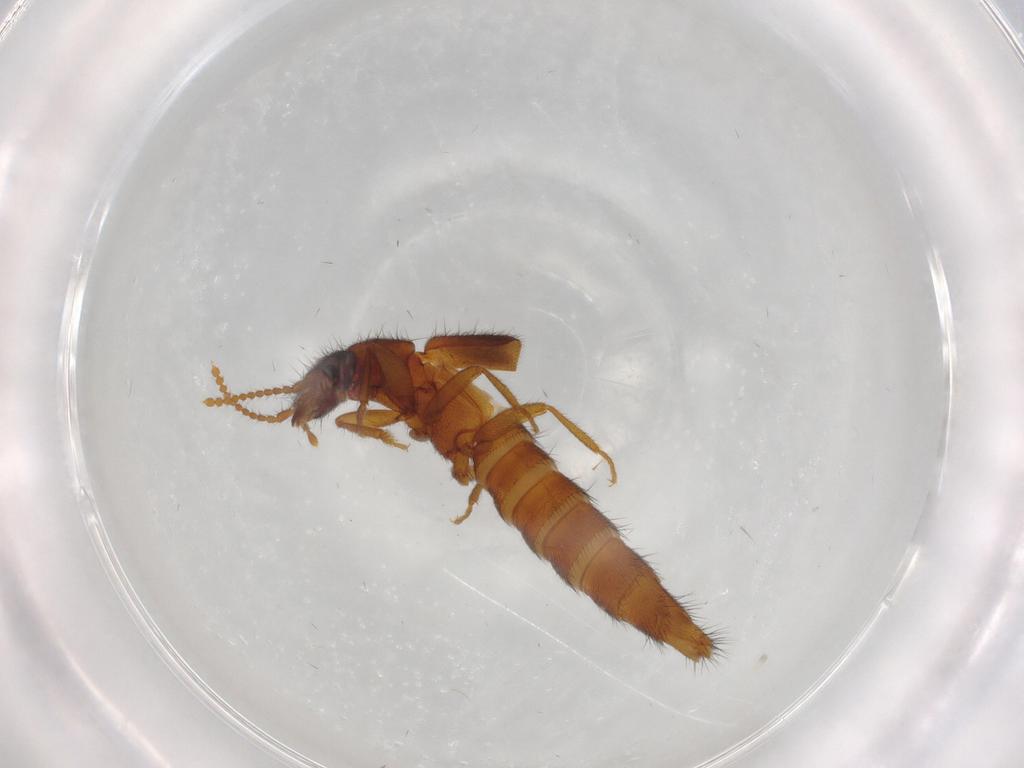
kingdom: Animalia
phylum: Arthropoda
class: Insecta
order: Coleoptera
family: Staphylinidae
